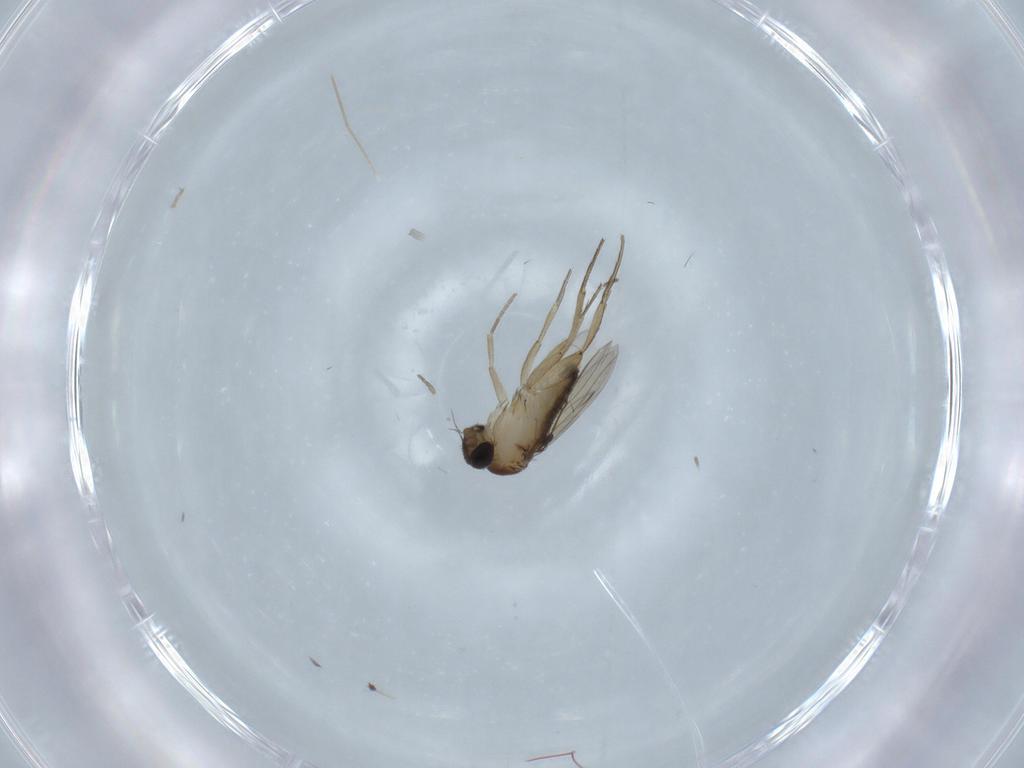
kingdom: Animalia
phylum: Arthropoda
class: Insecta
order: Diptera
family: Phoridae
